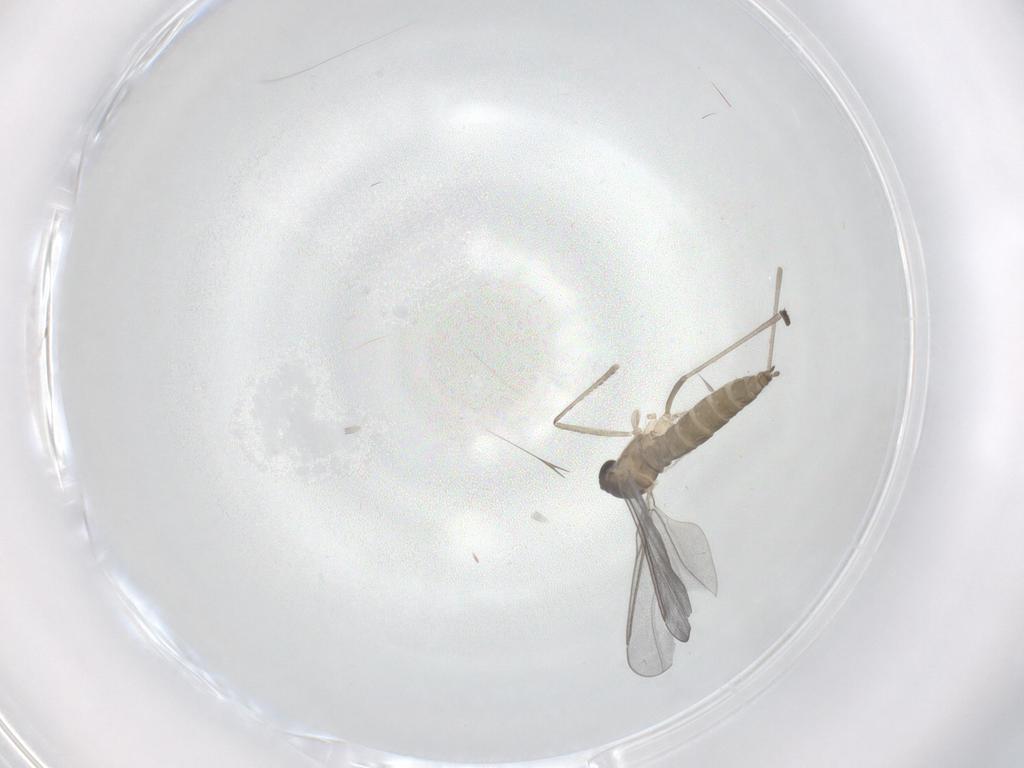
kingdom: Animalia
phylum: Arthropoda
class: Insecta
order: Diptera
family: Cecidomyiidae
